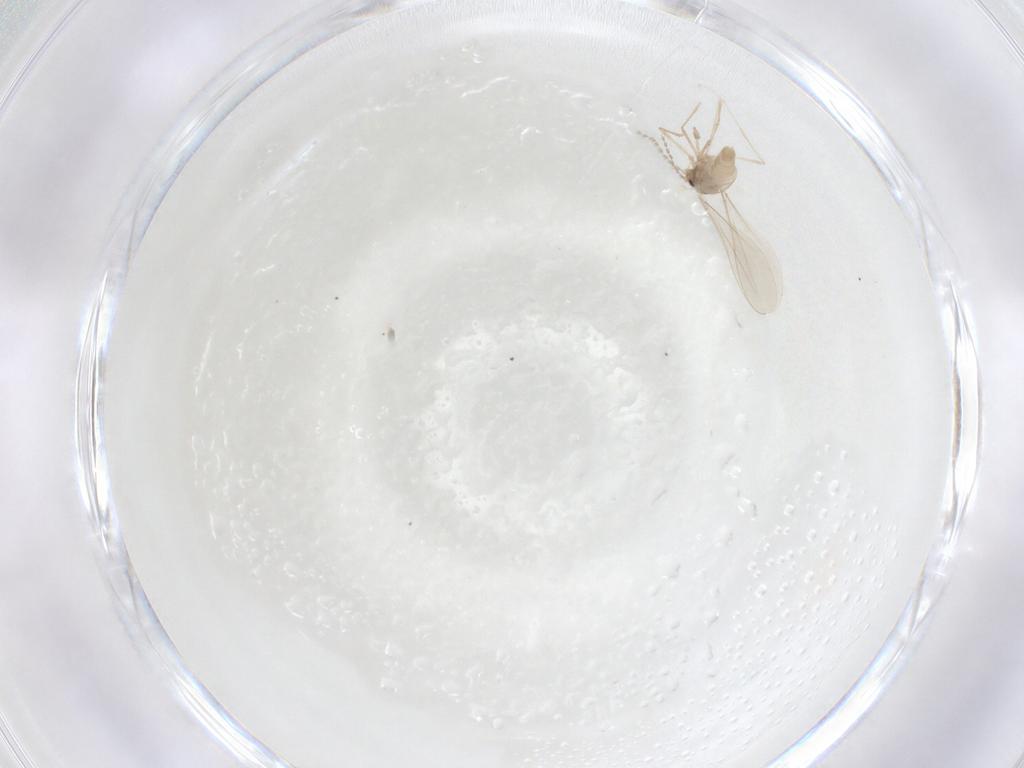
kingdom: Animalia
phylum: Arthropoda
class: Insecta
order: Diptera
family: Cecidomyiidae
